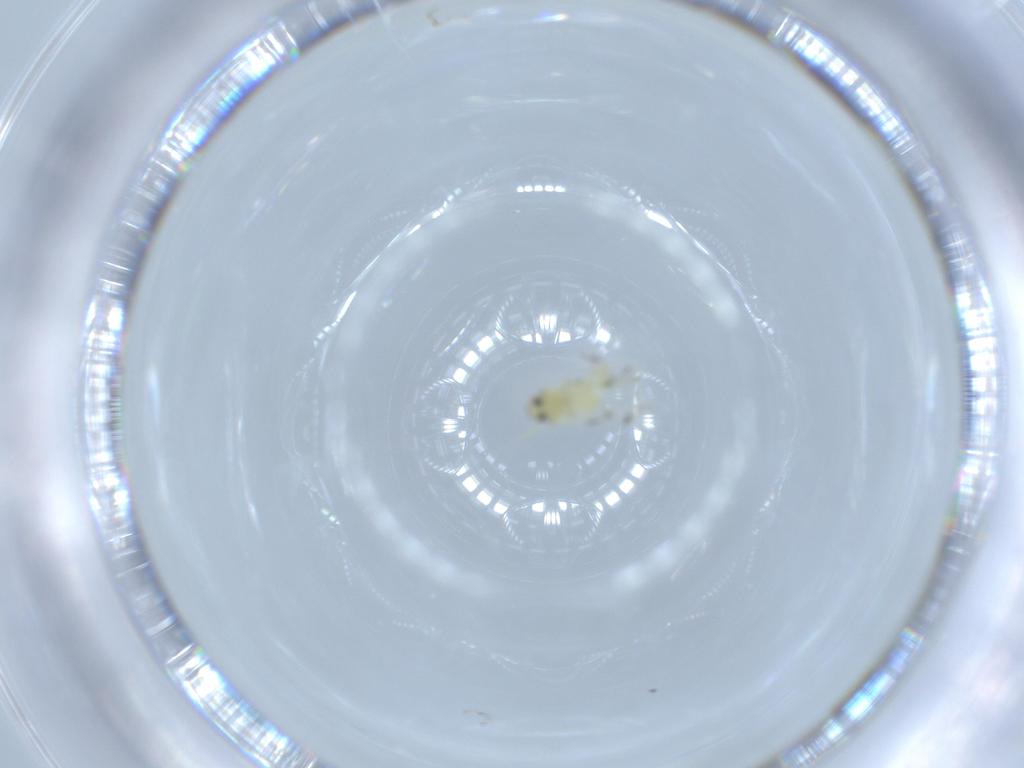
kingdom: Animalia
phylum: Arthropoda
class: Insecta
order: Hemiptera
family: Aleyrodidae
